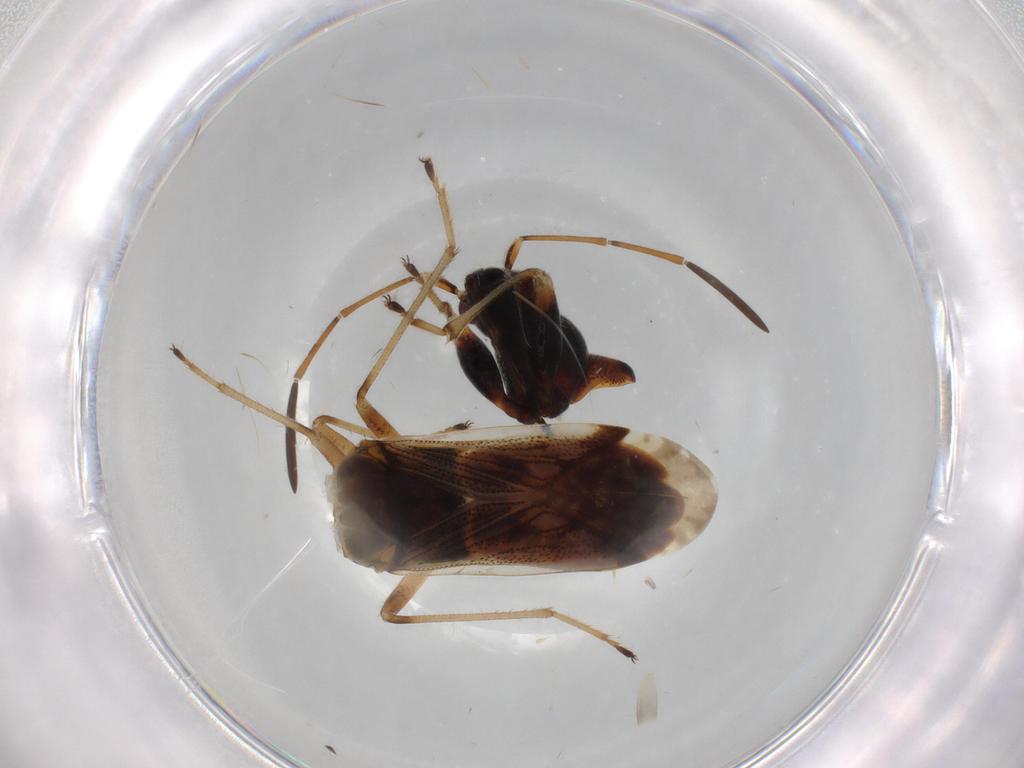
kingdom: Animalia
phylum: Arthropoda
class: Insecta
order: Hemiptera
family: Rhyparochromidae
